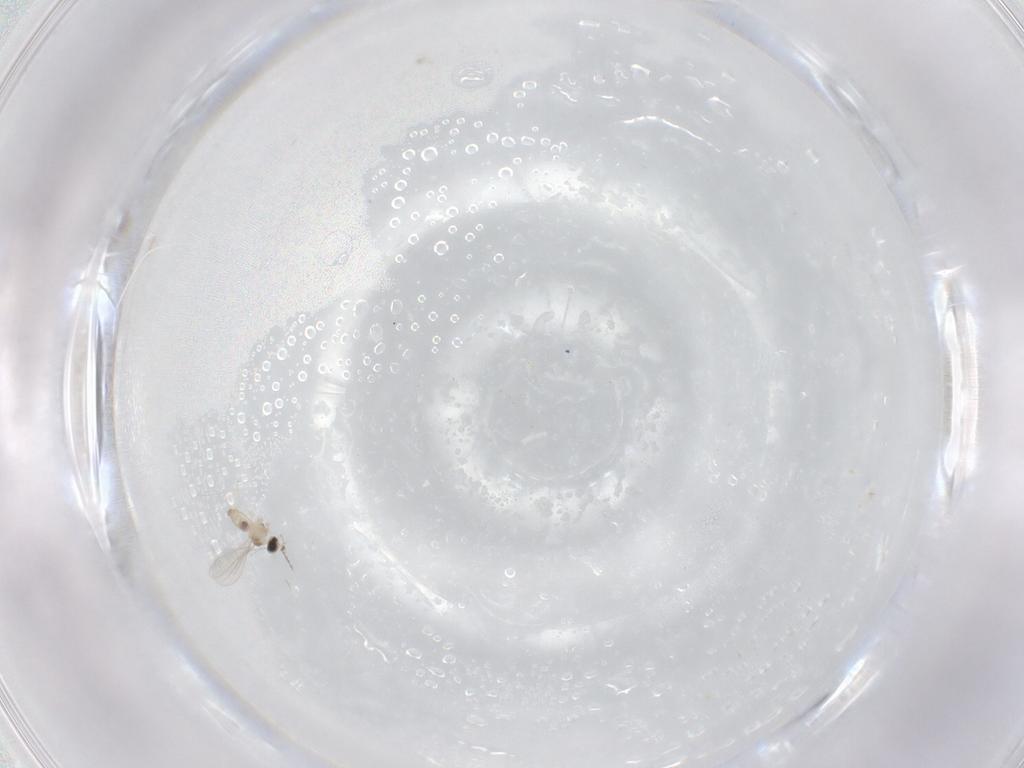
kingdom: Animalia
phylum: Arthropoda
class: Insecta
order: Diptera
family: Cecidomyiidae
